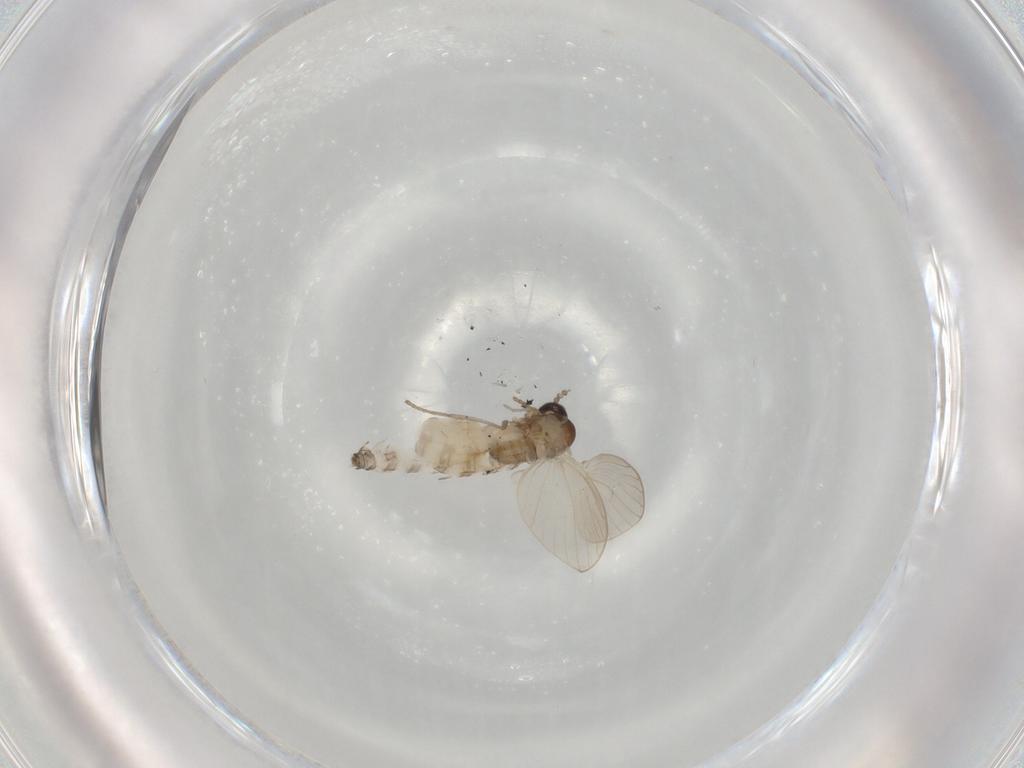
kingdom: Animalia
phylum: Arthropoda
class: Insecta
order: Diptera
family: Psychodidae
